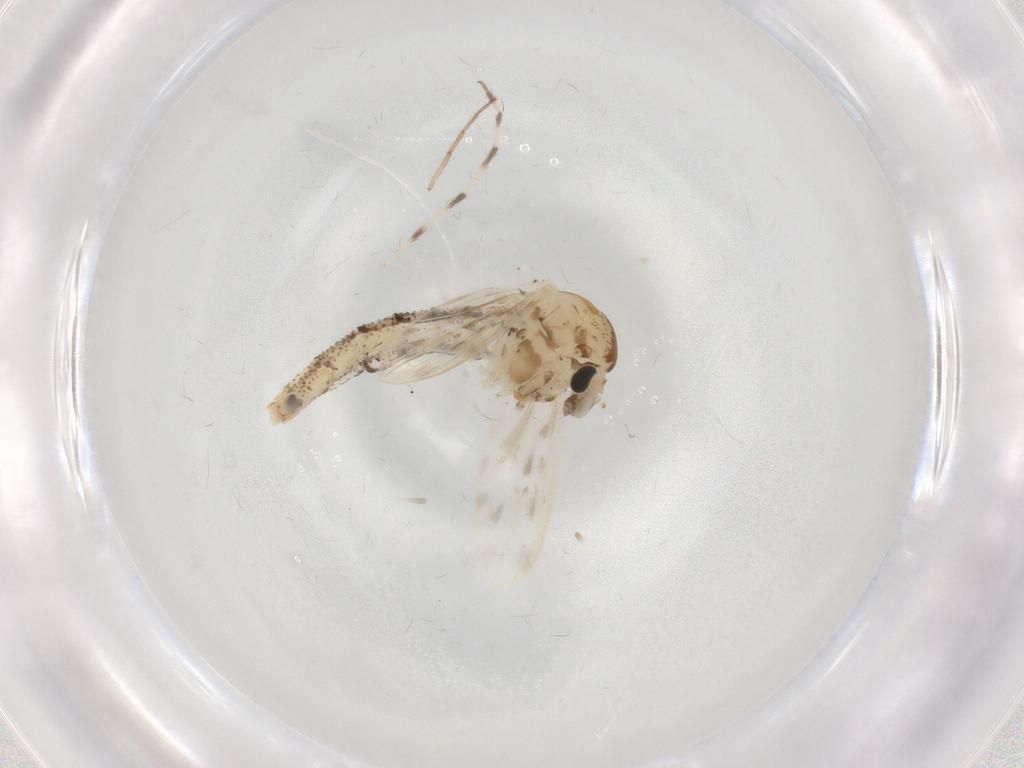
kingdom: Animalia
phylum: Arthropoda
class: Insecta
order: Diptera
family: Chaoboridae
